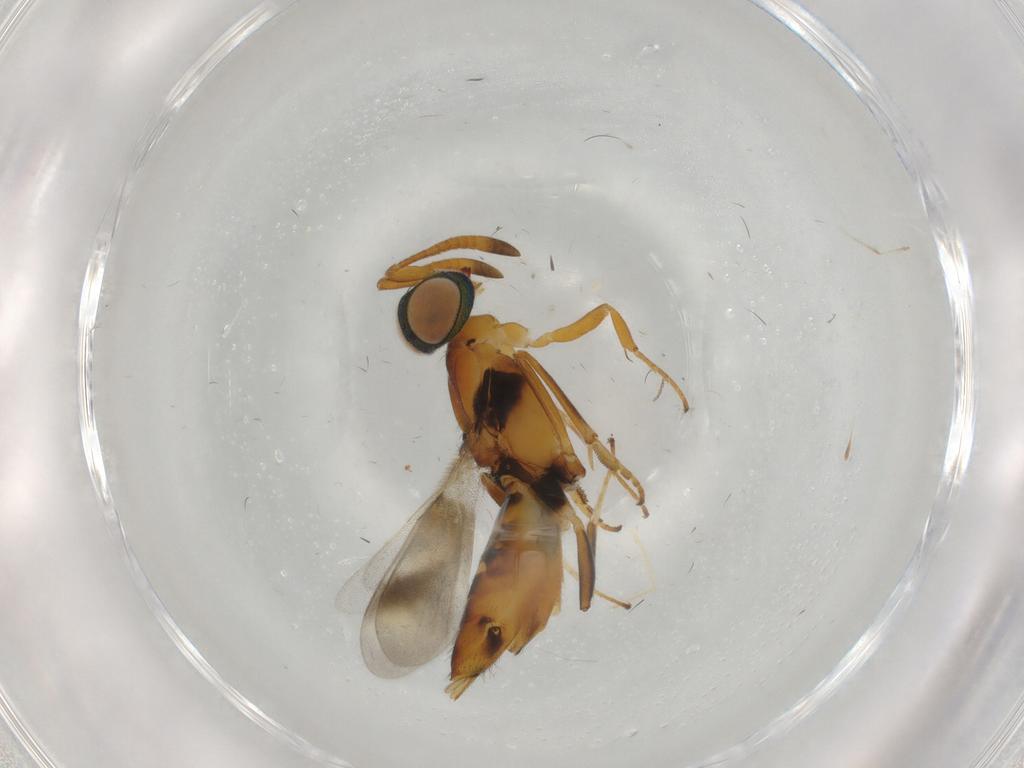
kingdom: Animalia
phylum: Arthropoda
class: Insecta
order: Hymenoptera
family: Eupelmidae
